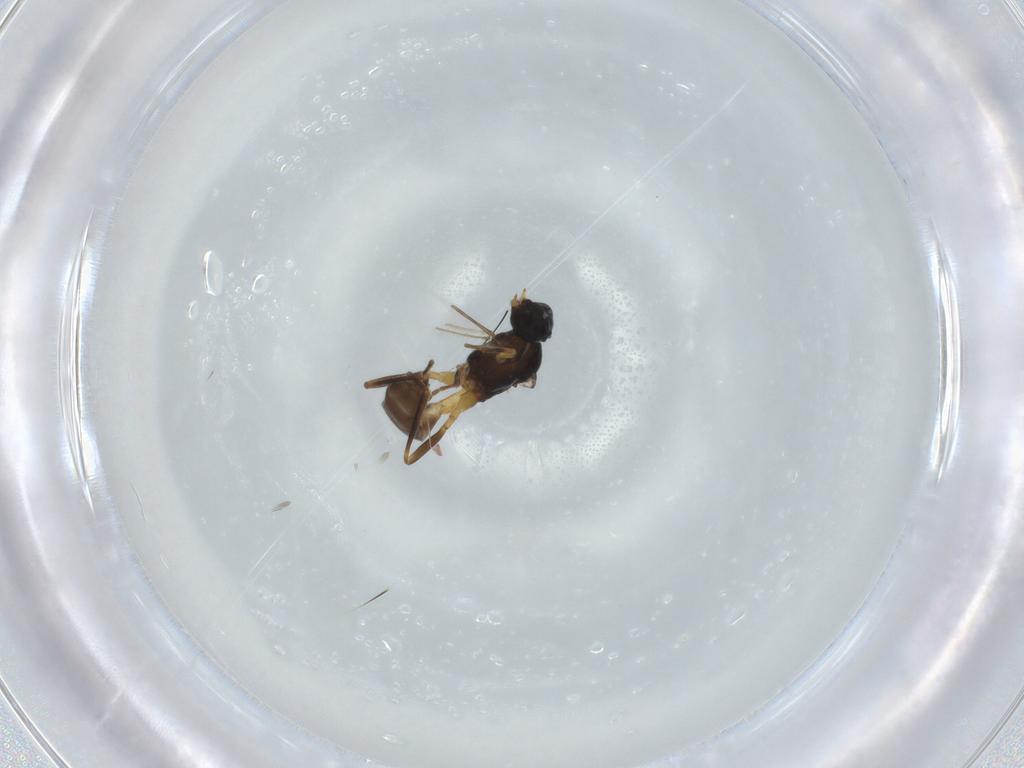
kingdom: Animalia
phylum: Arthropoda
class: Insecta
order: Hymenoptera
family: Braconidae
